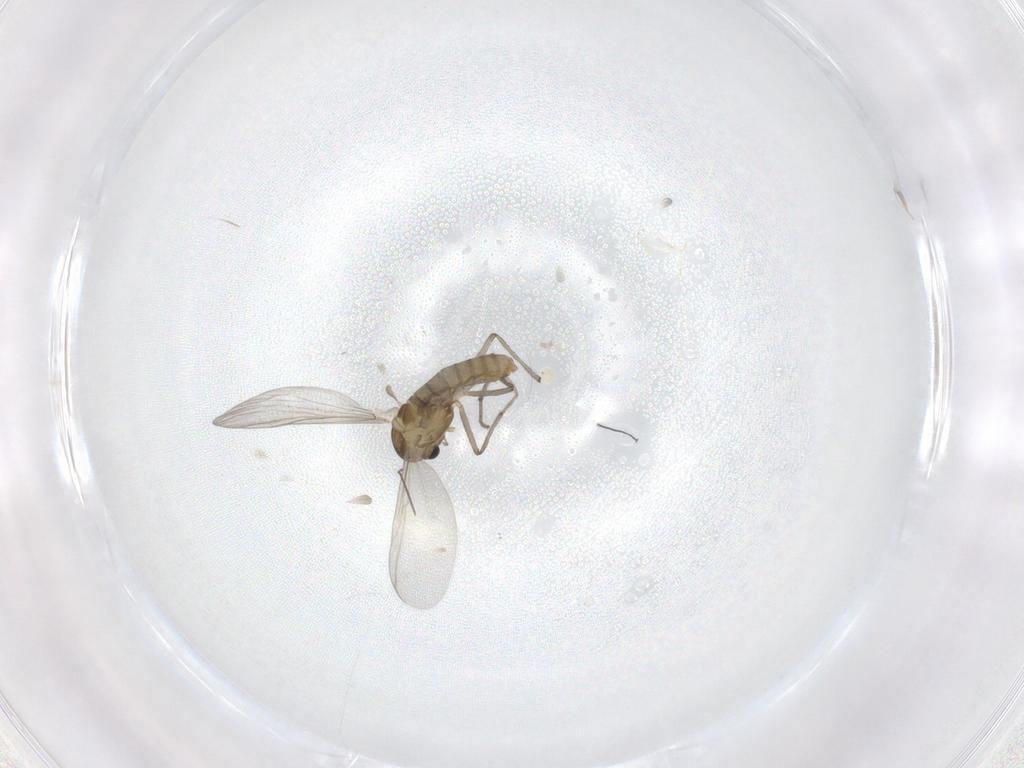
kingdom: Animalia
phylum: Arthropoda
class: Insecta
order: Diptera
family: Chironomidae
